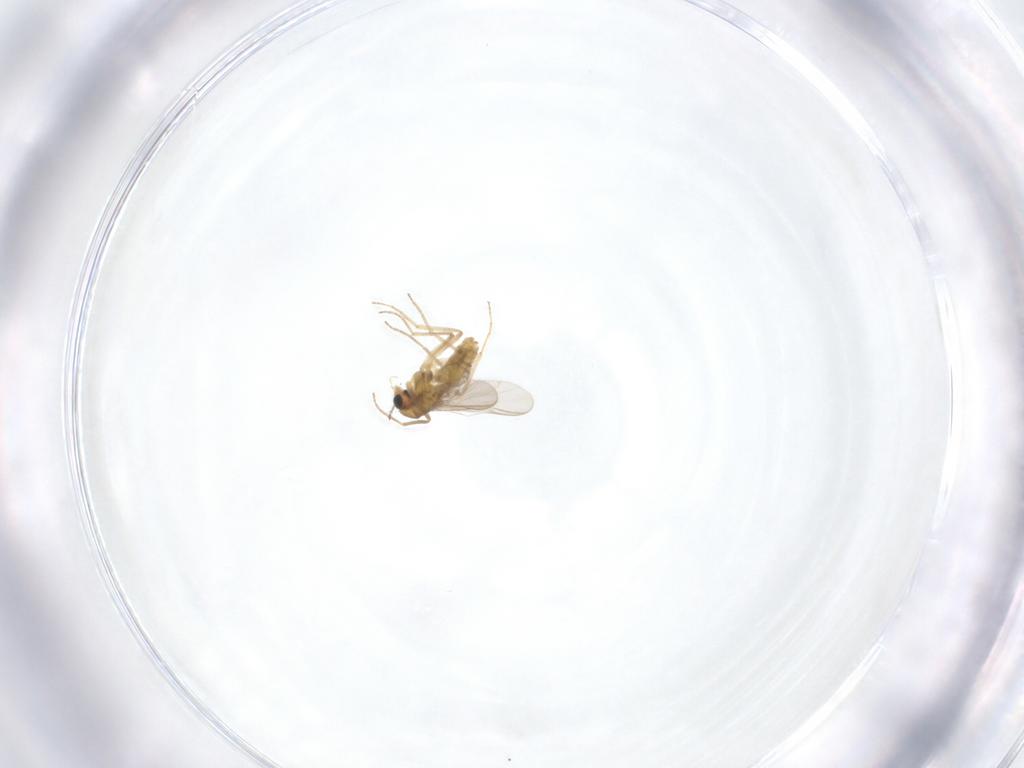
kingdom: Animalia
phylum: Arthropoda
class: Insecta
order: Diptera
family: Chironomidae
